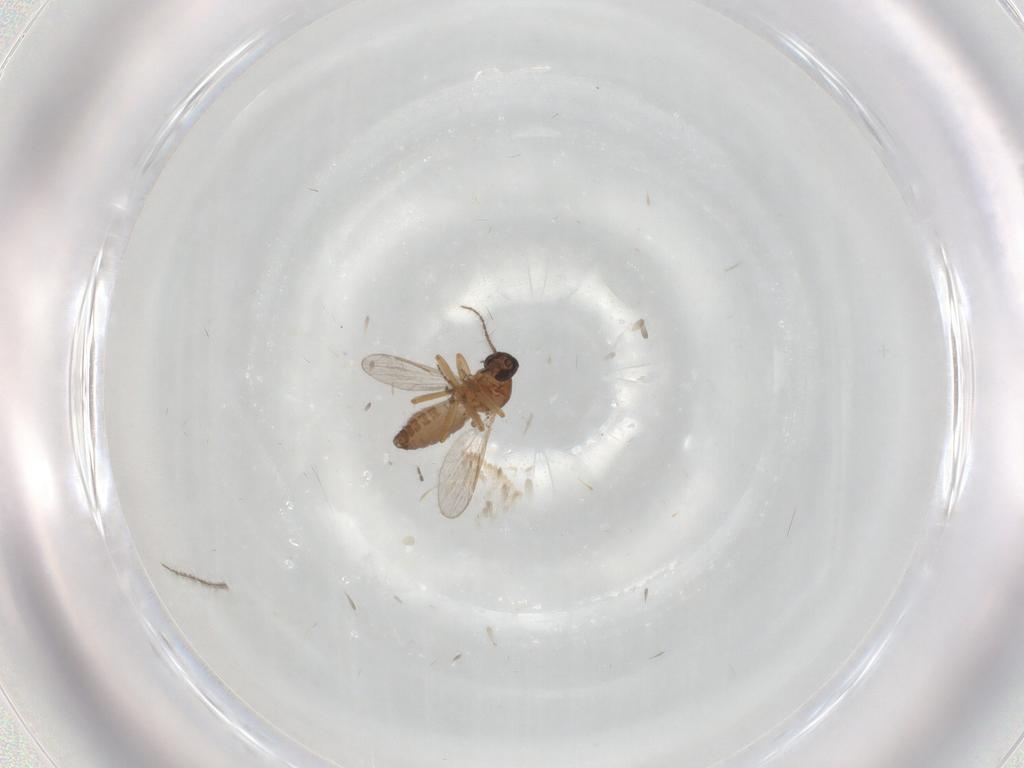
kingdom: Animalia
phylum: Arthropoda
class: Insecta
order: Diptera
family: Ceratopogonidae
